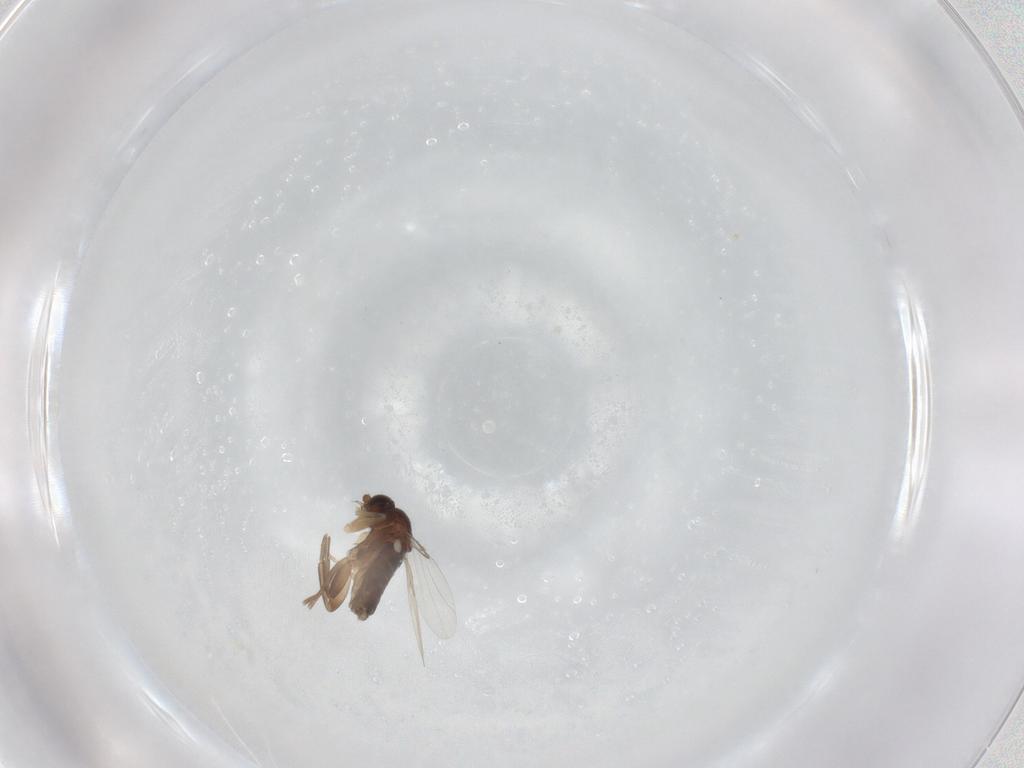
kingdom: Animalia
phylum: Arthropoda
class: Insecta
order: Diptera
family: Phoridae
